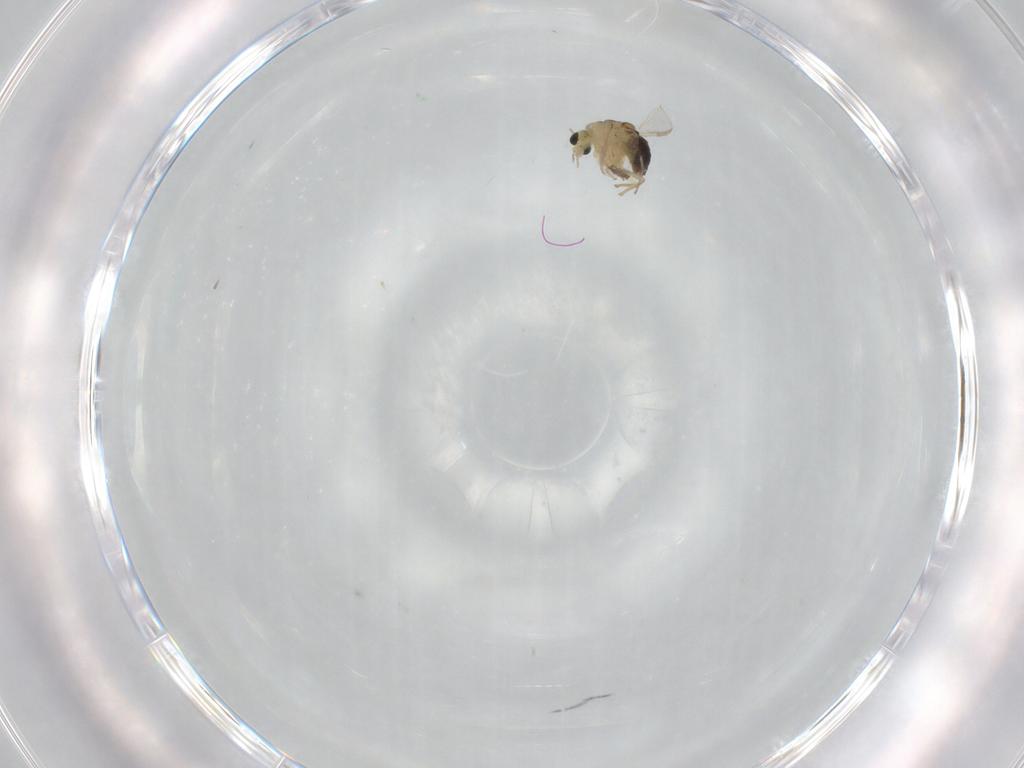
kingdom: Animalia
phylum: Arthropoda
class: Insecta
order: Diptera
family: Chironomidae
